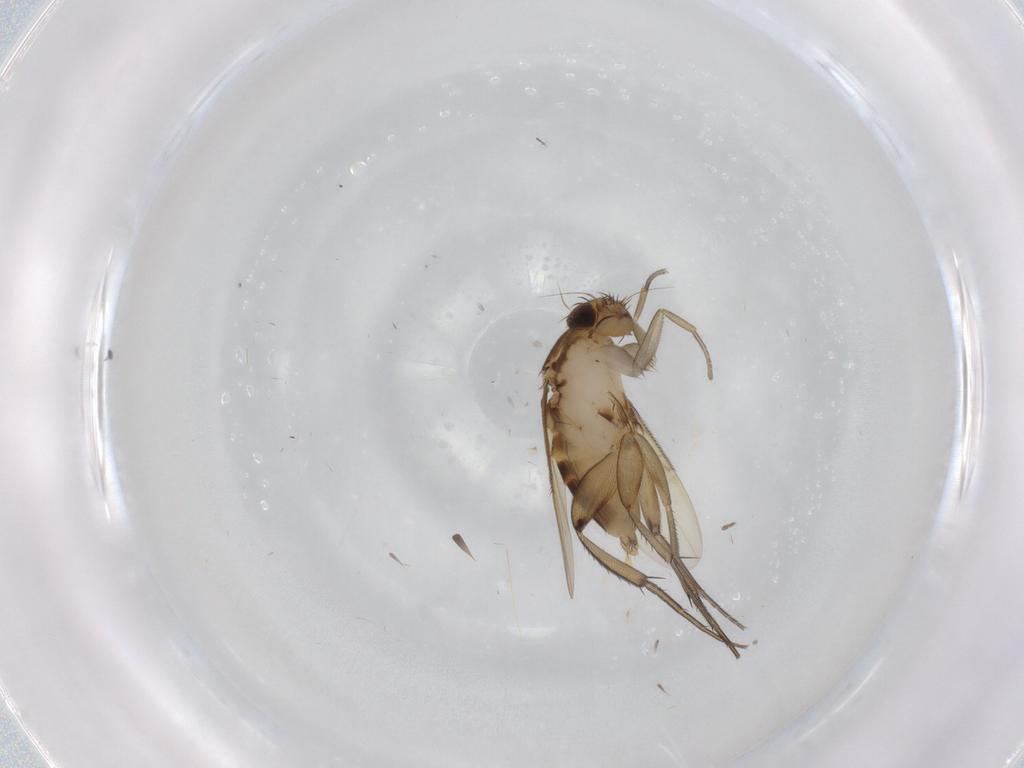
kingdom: Animalia
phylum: Arthropoda
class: Insecta
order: Diptera
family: Phoridae
